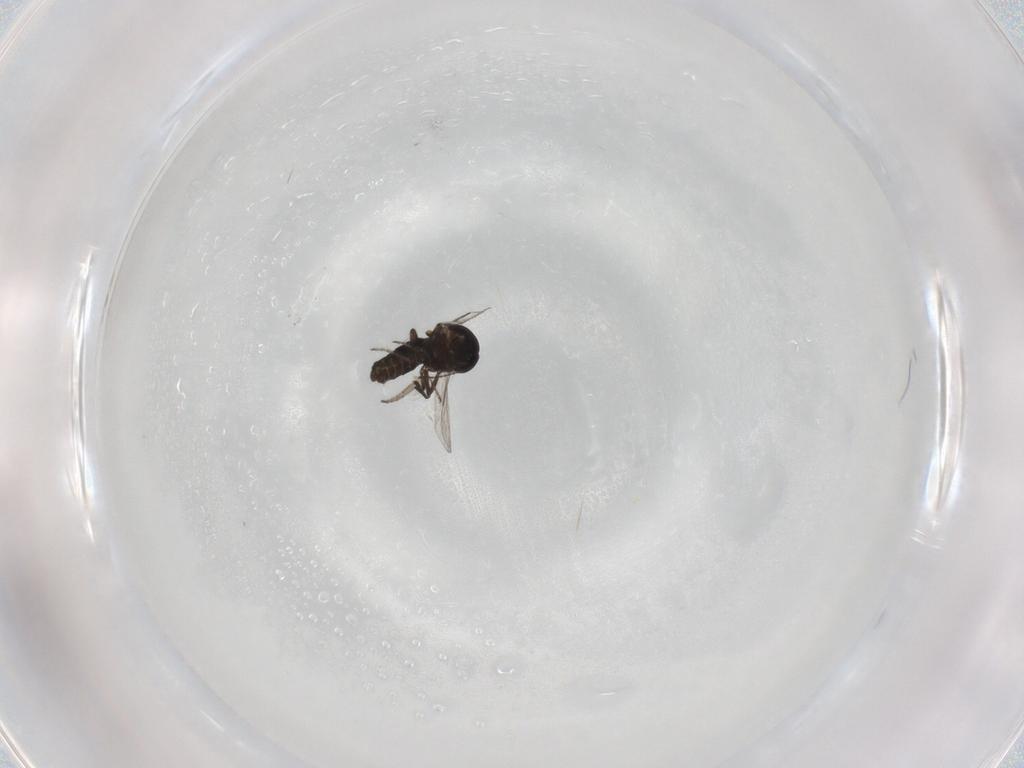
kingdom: Animalia
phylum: Arthropoda
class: Insecta
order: Diptera
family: Ceratopogonidae
